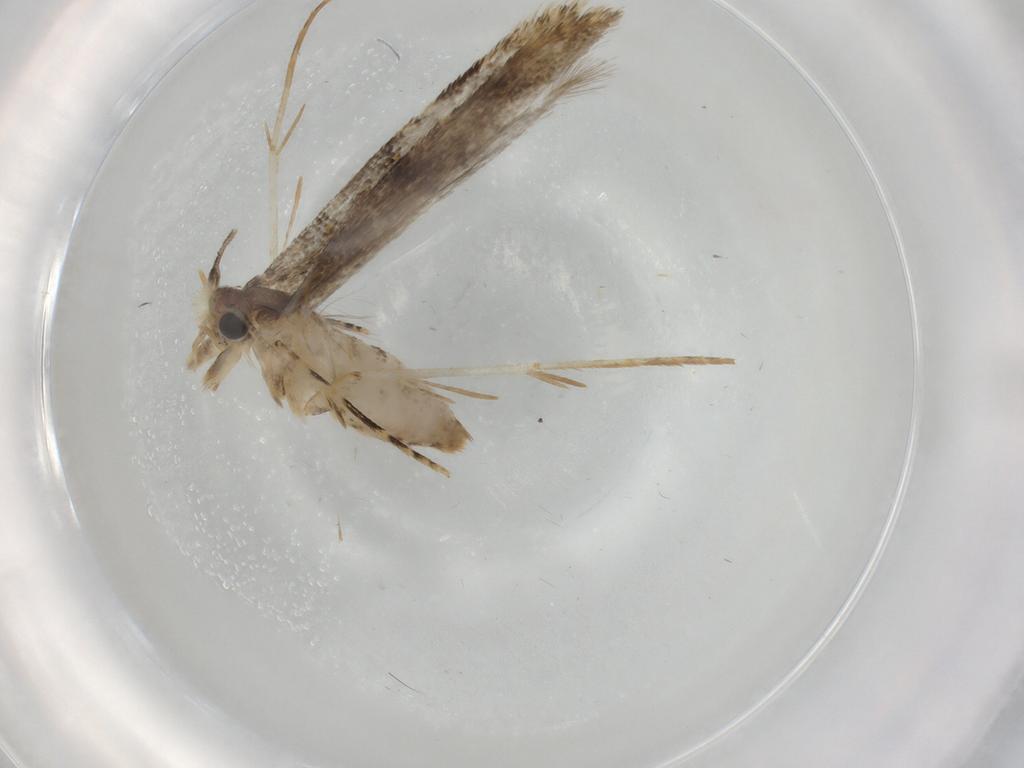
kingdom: Animalia
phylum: Arthropoda
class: Insecta
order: Lepidoptera
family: Tineidae
